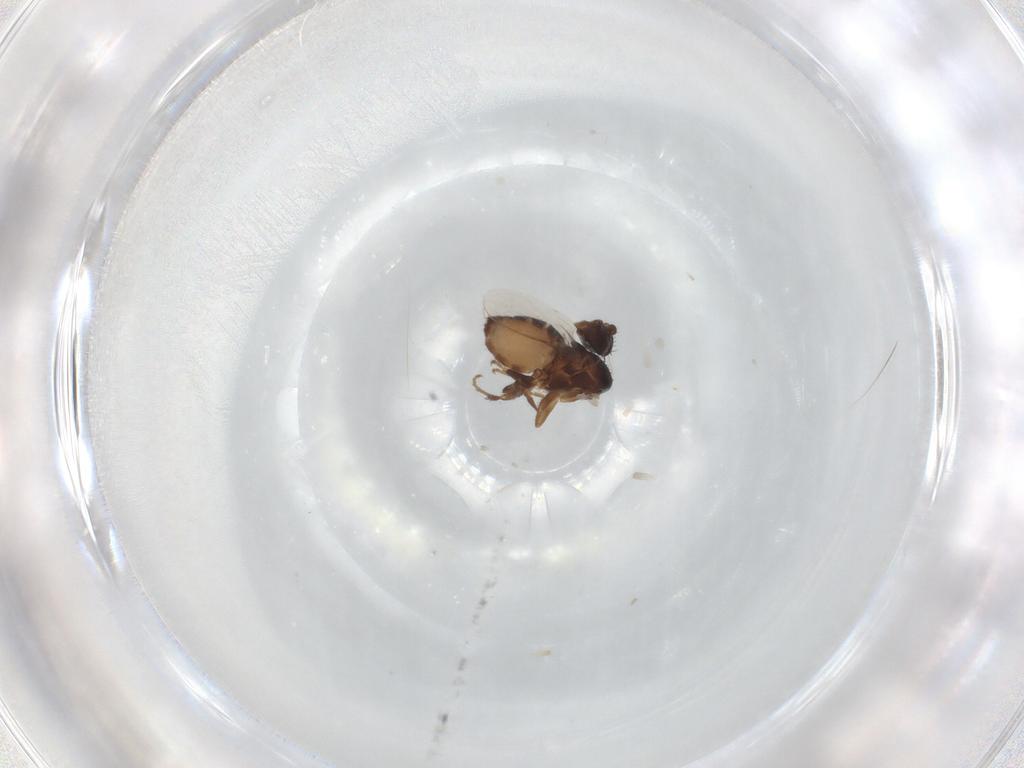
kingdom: Animalia
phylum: Arthropoda
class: Insecta
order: Diptera
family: Sphaeroceridae
